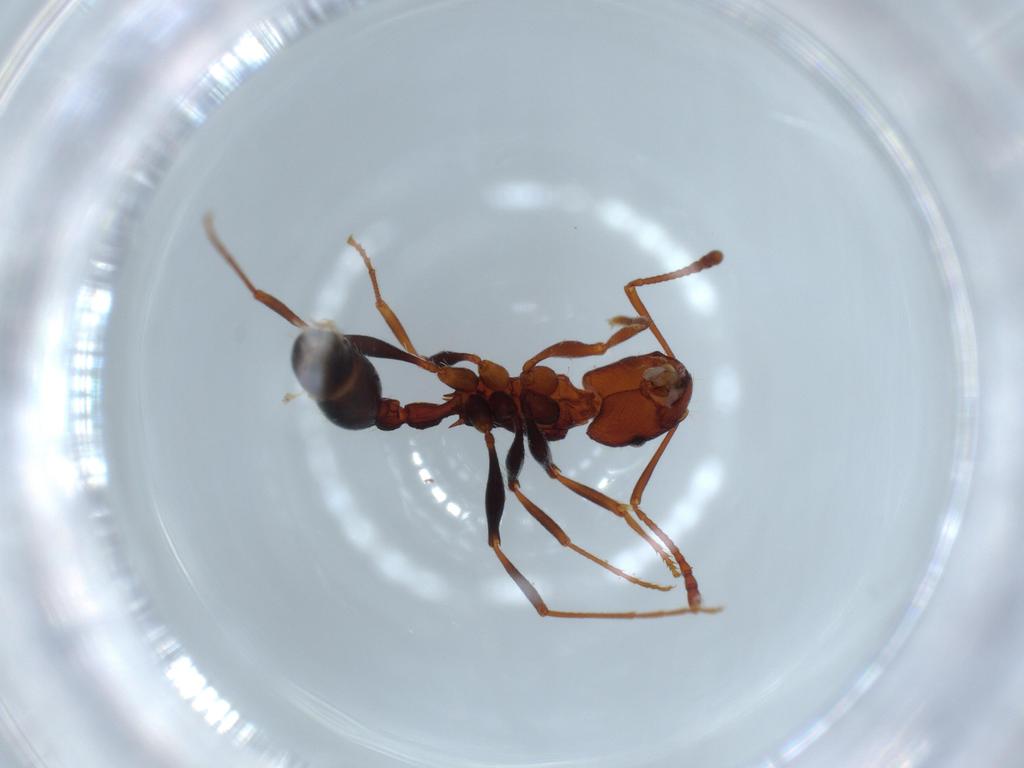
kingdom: Animalia
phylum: Arthropoda
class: Insecta
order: Hymenoptera
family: Formicidae
